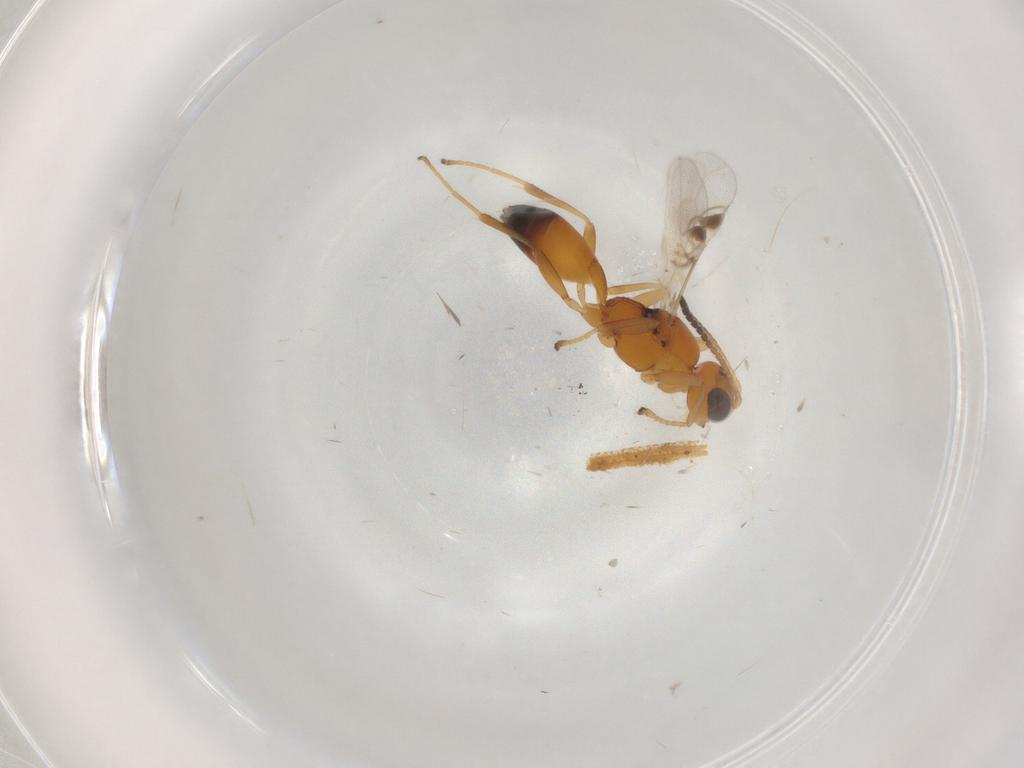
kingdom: Animalia
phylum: Arthropoda
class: Insecta
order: Hymenoptera
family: Braconidae
